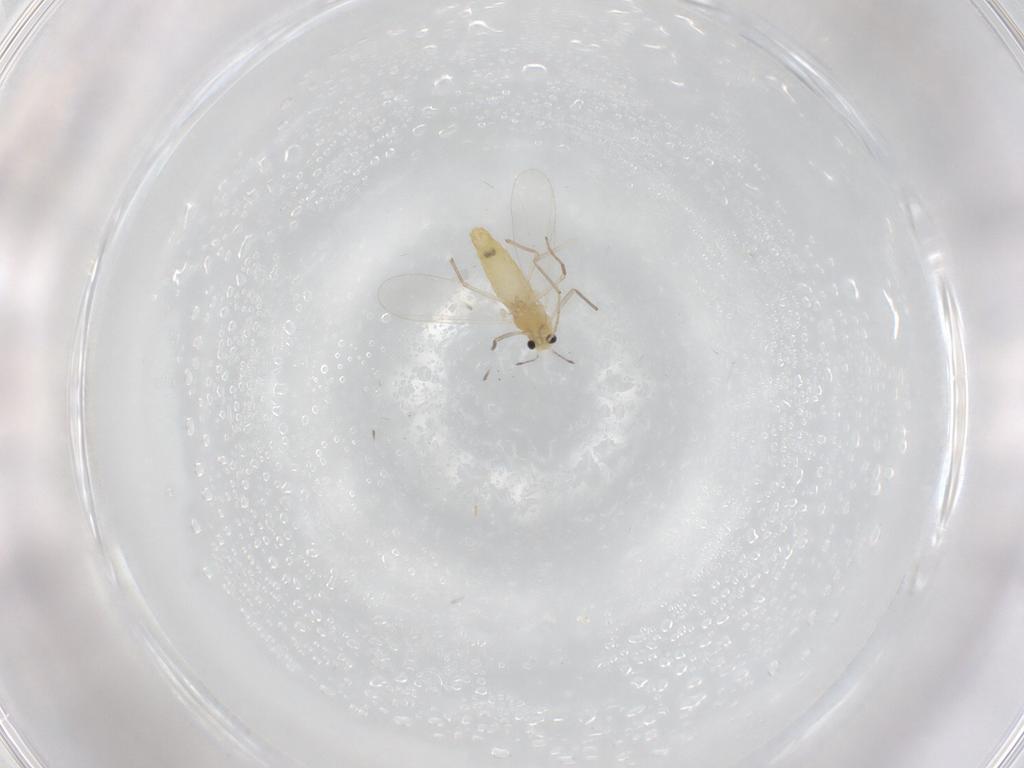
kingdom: Animalia
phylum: Arthropoda
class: Insecta
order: Diptera
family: Chironomidae
